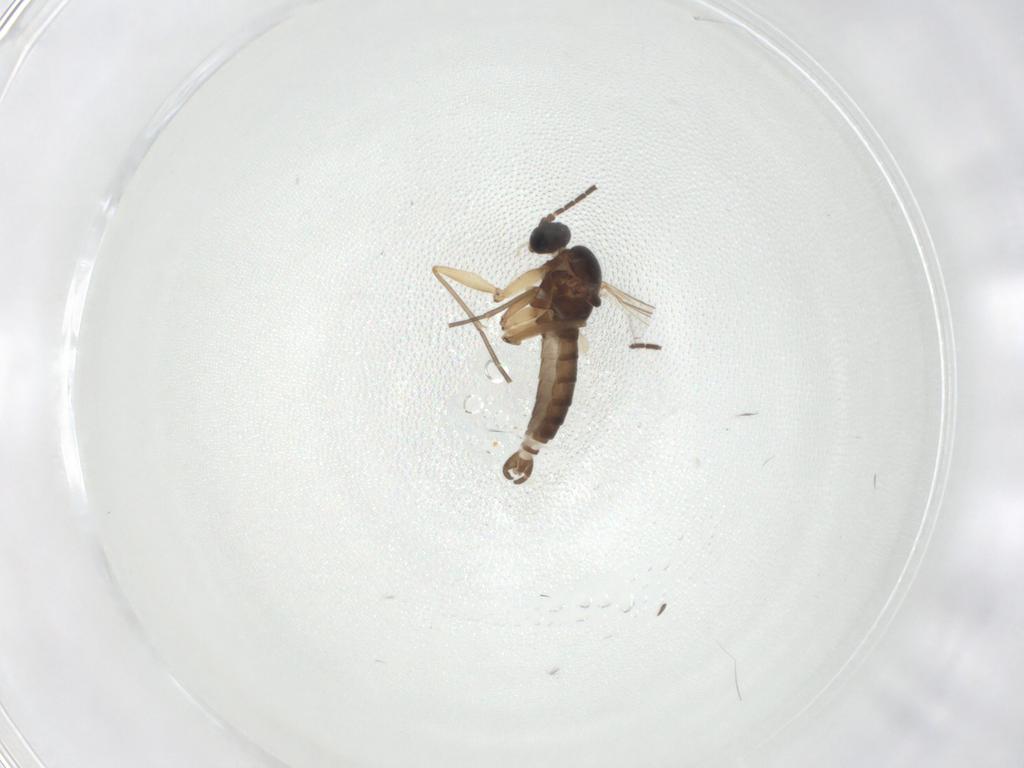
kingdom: Animalia
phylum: Arthropoda
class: Insecta
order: Diptera
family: Sciaridae
